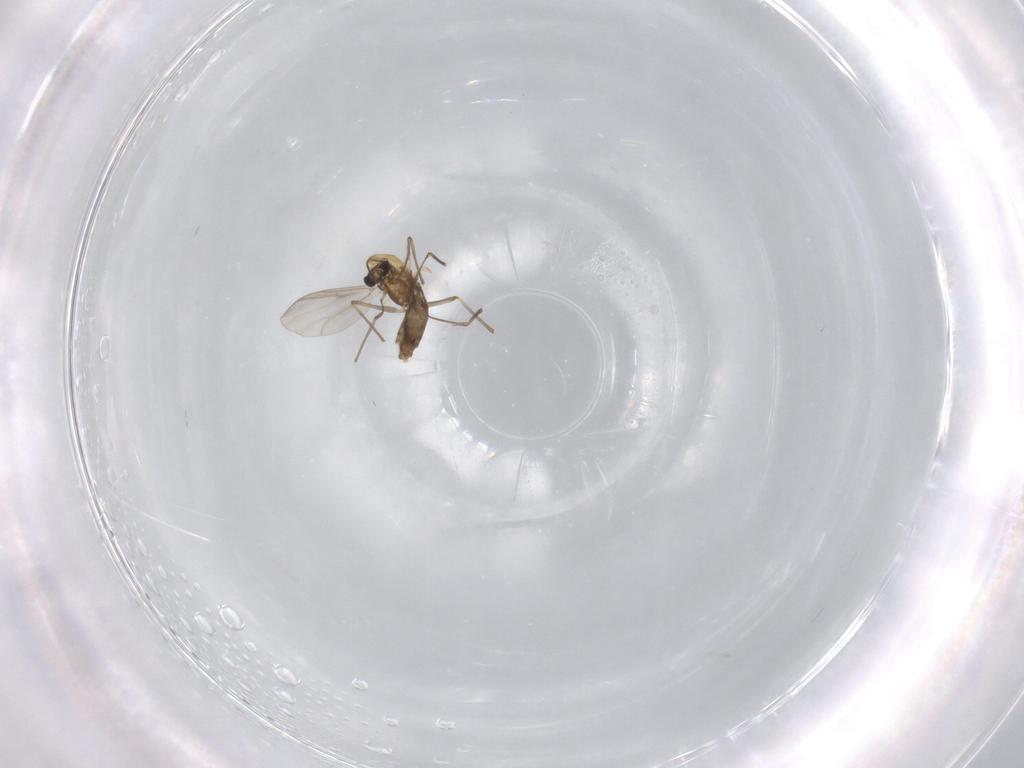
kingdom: Animalia
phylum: Arthropoda
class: Insecta
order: Diptera
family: Chironomidae
